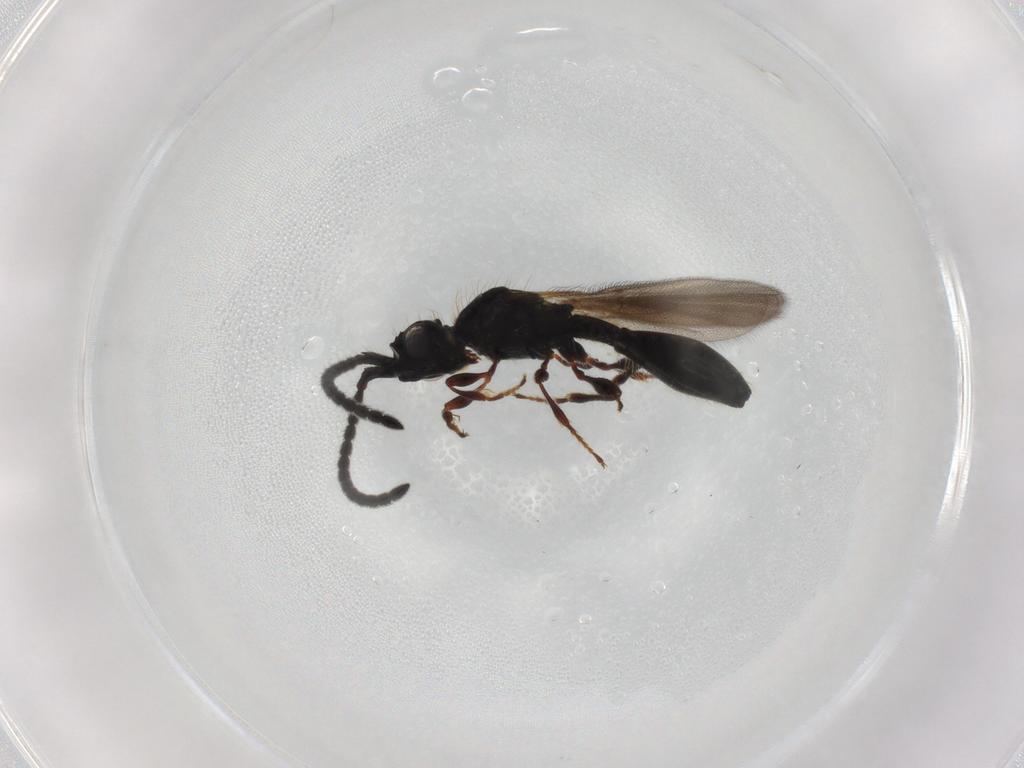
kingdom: Animalia
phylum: Arthropoda
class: Insecta
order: Hymenoptera
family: Diapriidae
